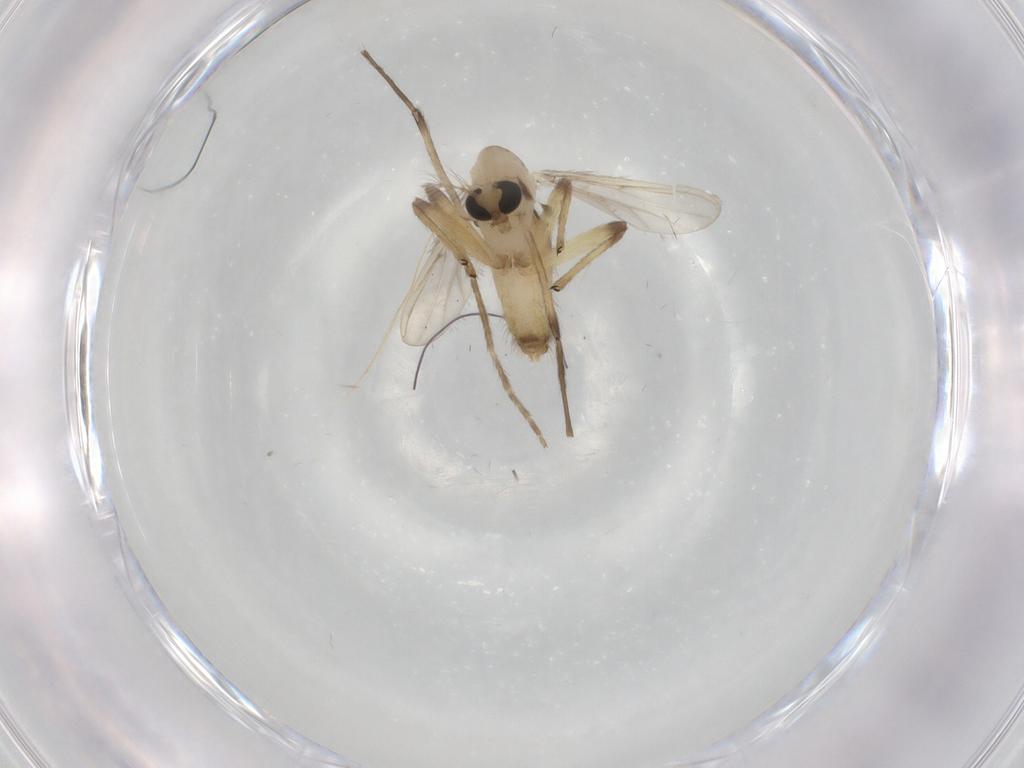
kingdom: Animalia
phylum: Arthropoda
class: Insecta
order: Diptera
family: Chironomidae
